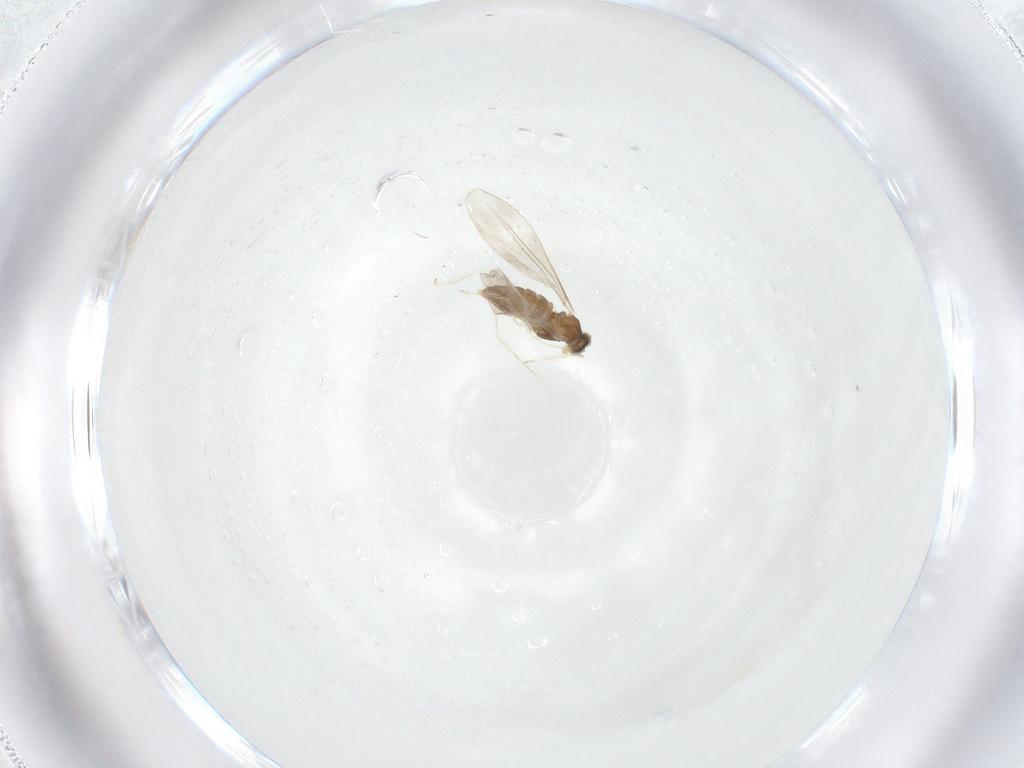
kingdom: Animalia
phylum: Arthropoda
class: Insecta
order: Diptera
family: Cecidomyiidae
